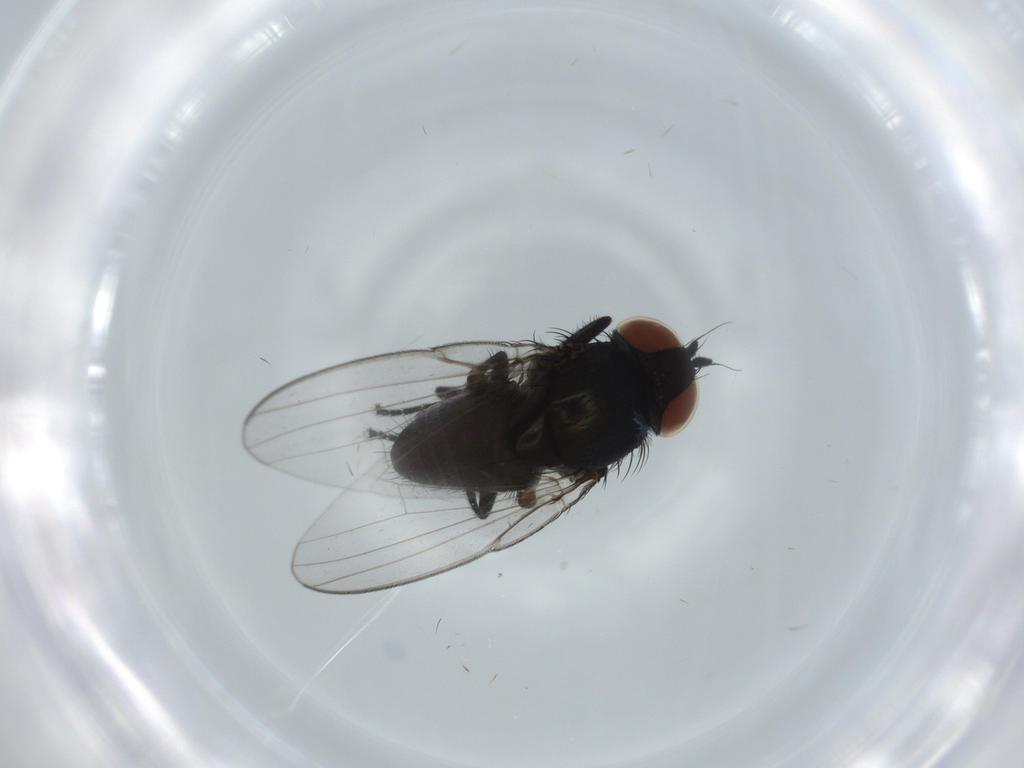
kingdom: Animalia
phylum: Arthropoda
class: Insecta
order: Diptera
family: Milichiidae
